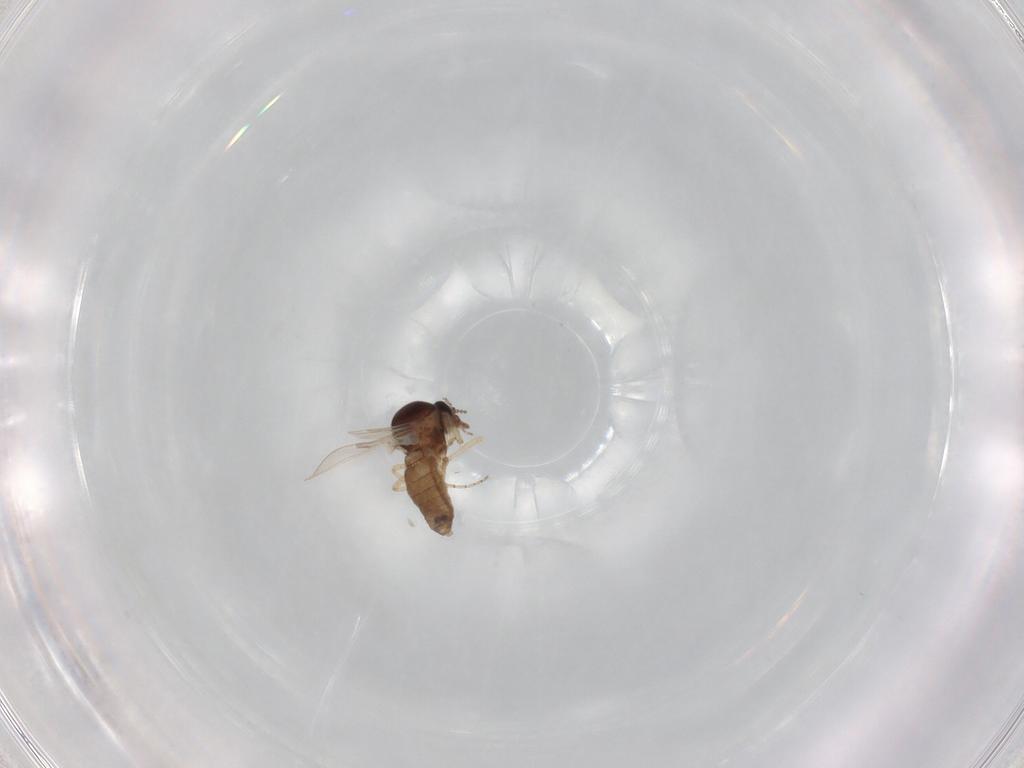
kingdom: Animalia
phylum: Arthropoda
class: Insecta
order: Diptera
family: Ceratopogonidae
